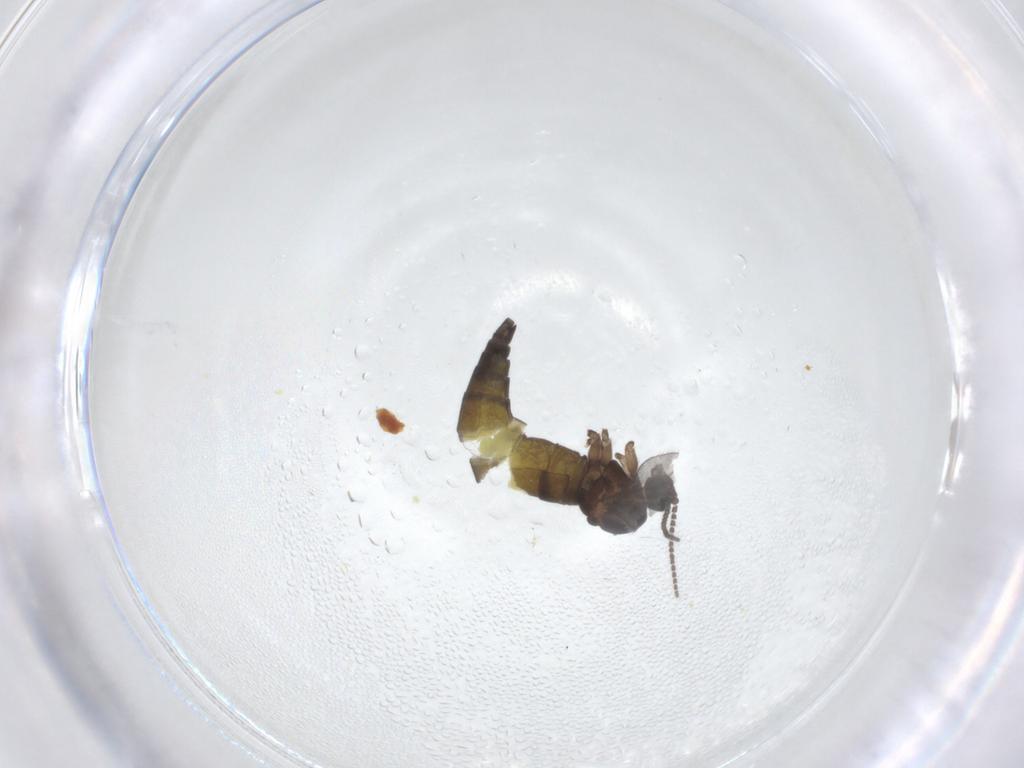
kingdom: Animalia
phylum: Arthropoda
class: Insecta
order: Diptera
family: Sciaridae
